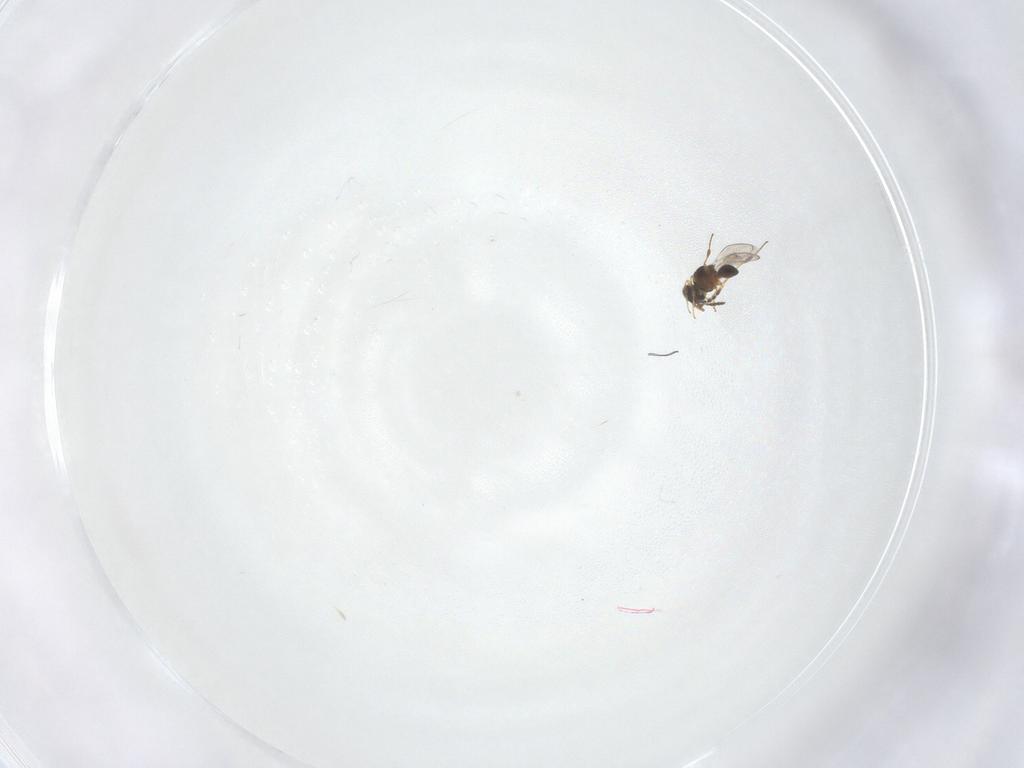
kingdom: Animalia
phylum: Arthropoda
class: Insecta
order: Hymenoptera
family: Platygastridae
